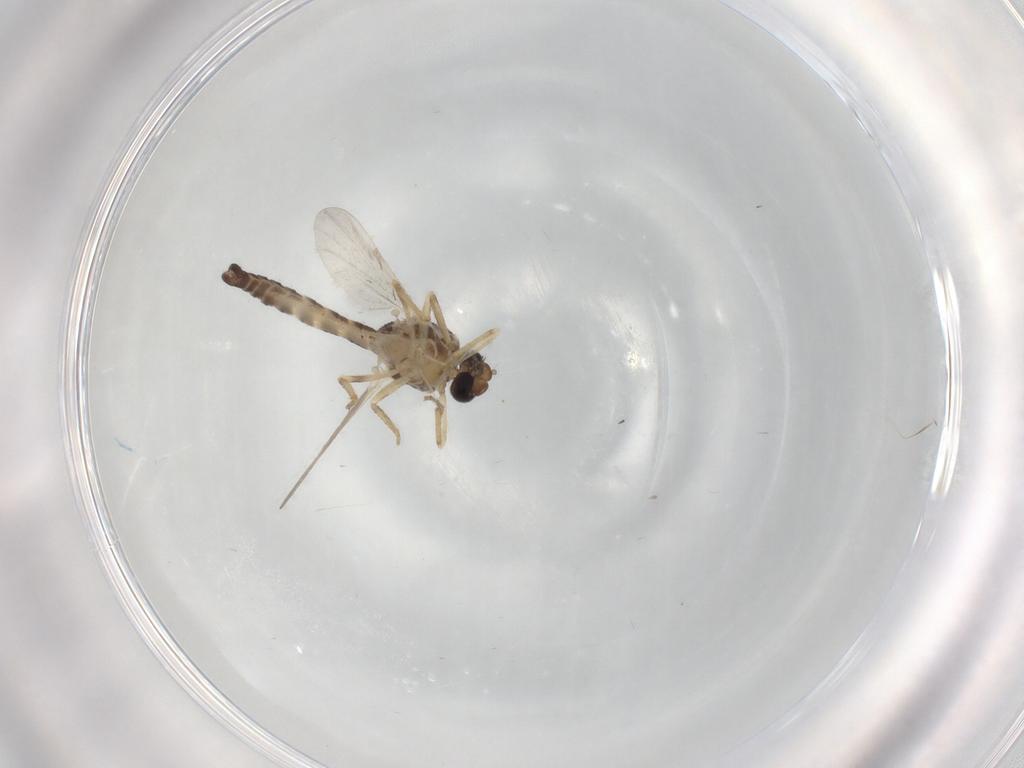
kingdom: Animalia
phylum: Arthropoda
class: Insecta
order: Diptera
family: Ceratopogonidae
